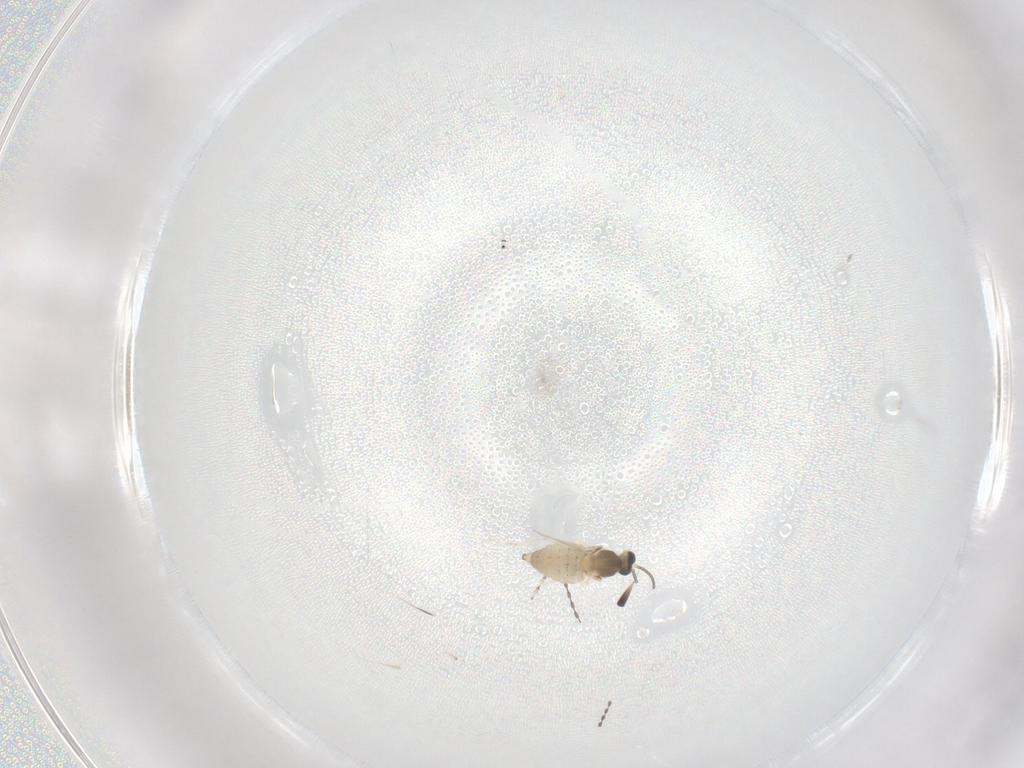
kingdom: Animalia
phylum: Arthropoda
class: Insecta
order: Diptera
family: Cecidomyiidae
